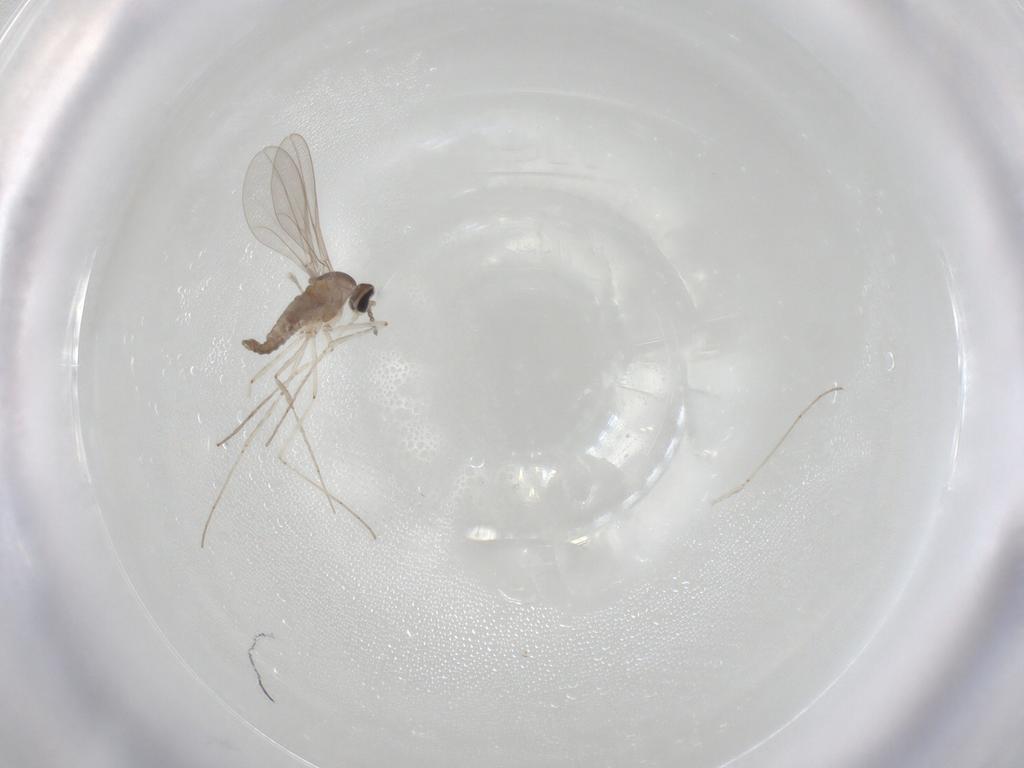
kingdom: Animalia
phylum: Arthropoda
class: Insecta
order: Diptera
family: Cecidomyiidae
